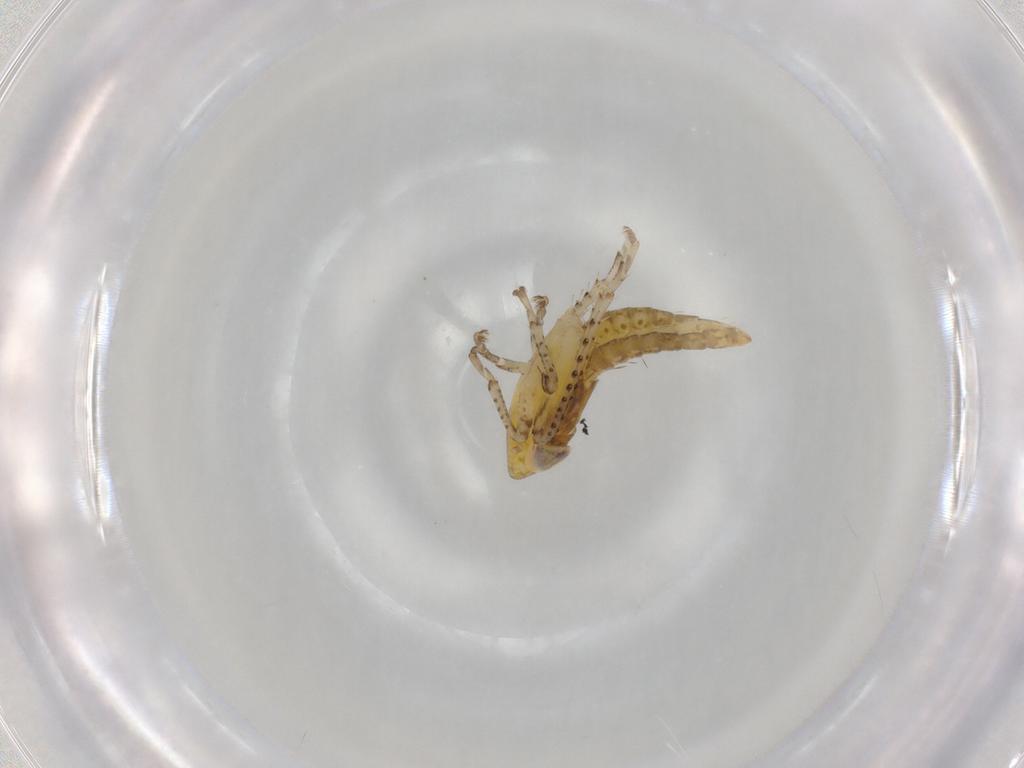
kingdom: Animalia
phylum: Arthropoda
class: Insecta
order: Hemiptera
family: Cicadellidae
